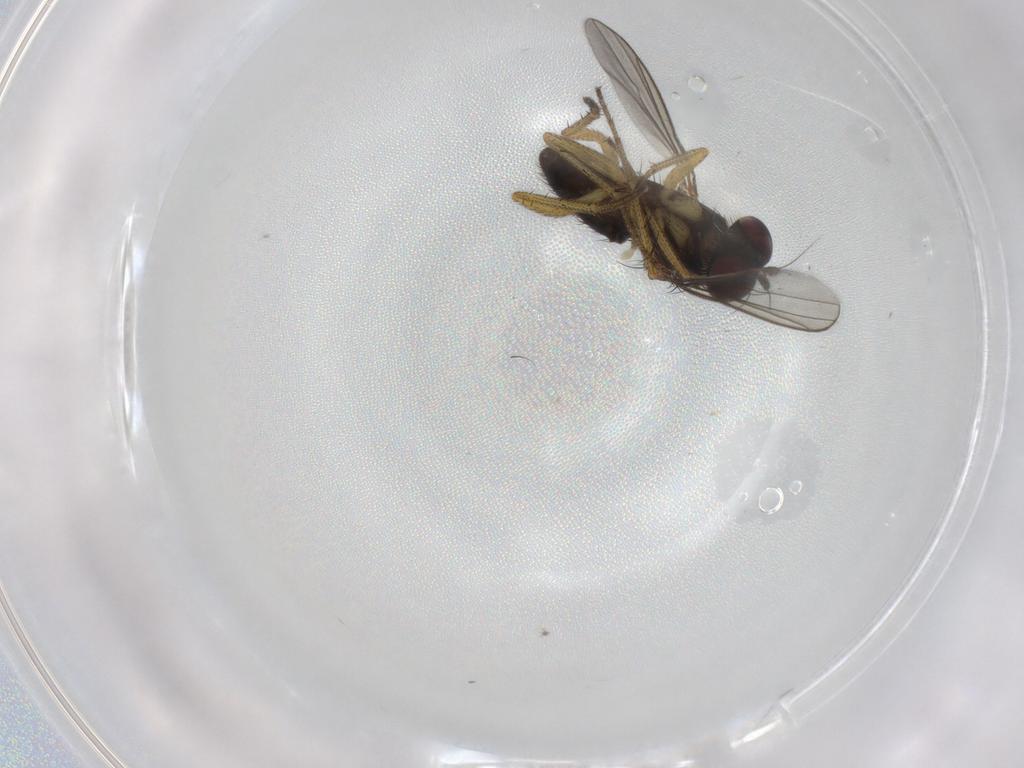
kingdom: Animalia
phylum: Arthropoda
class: Insecta
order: Diptera
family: Dolichopodidae
